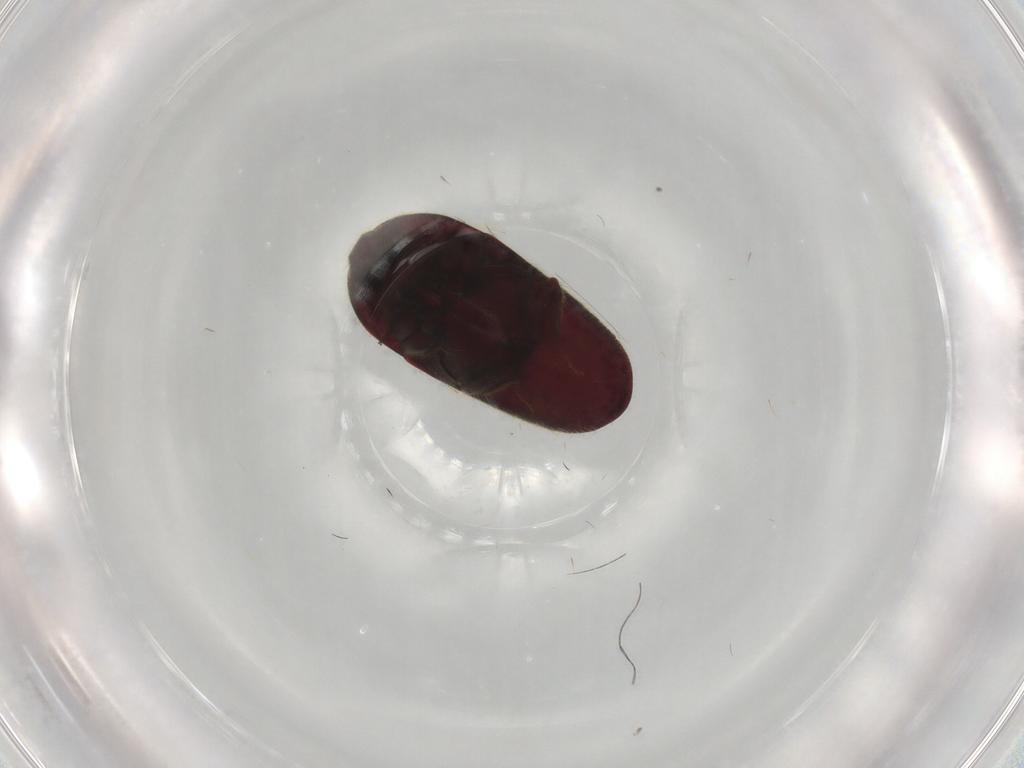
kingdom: Animalia
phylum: Arthropoda
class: Insecta
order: Coleoptera
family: Throscidae
